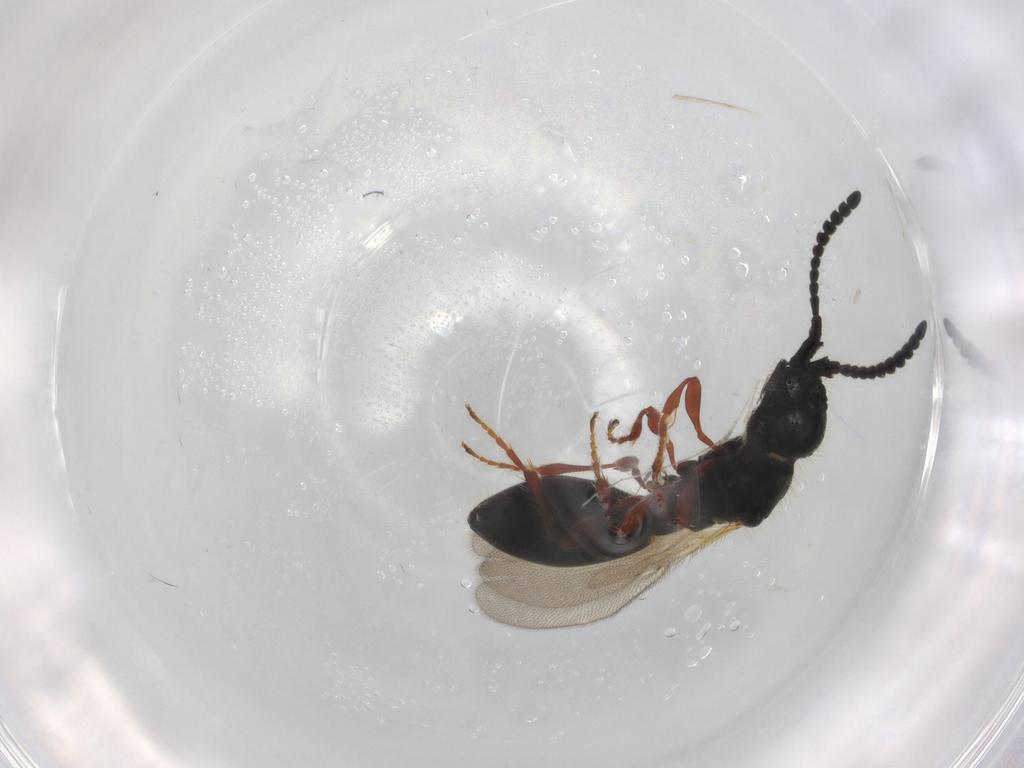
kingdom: Animalia
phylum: Arthropoda
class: Insecta
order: Hymenoptera
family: Diapriidae
